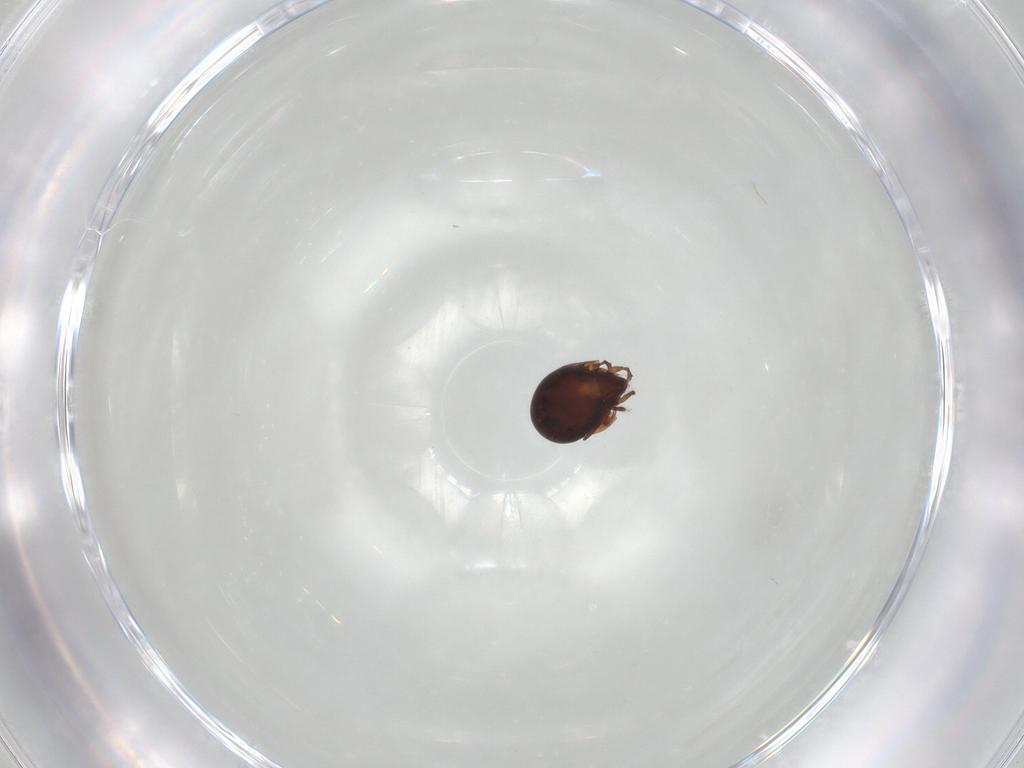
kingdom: Animalia
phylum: Arthropoda
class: Arachnida
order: Sarcoptiformes
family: Humerobatidae
